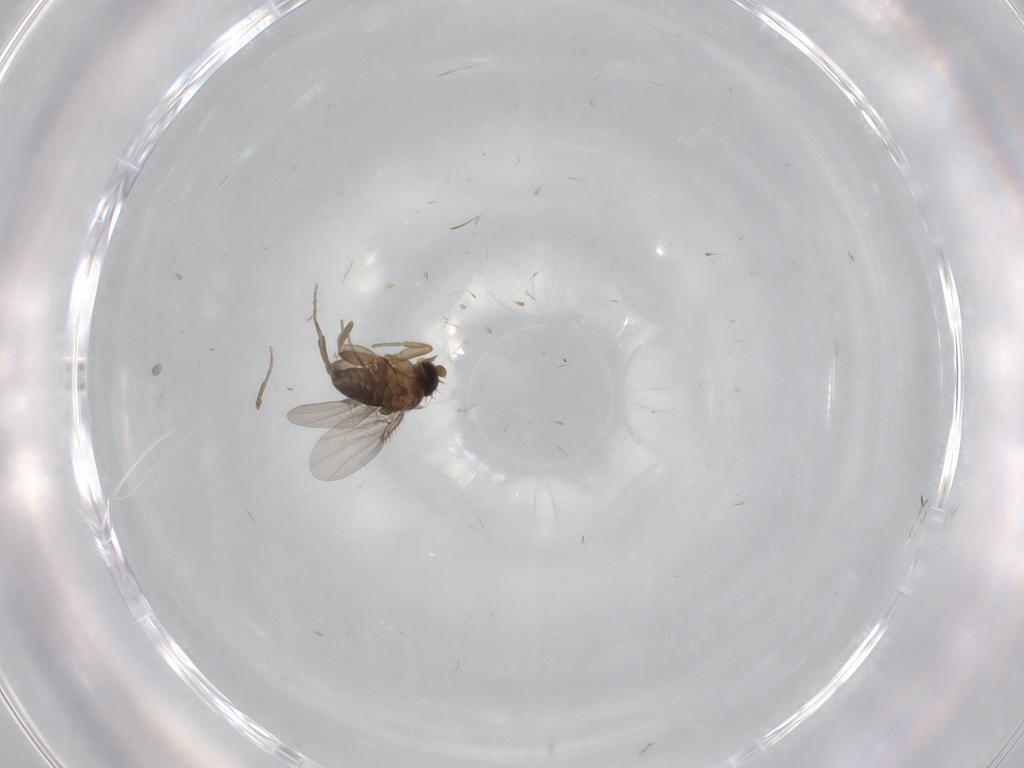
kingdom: Animalia
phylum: Arthropoda
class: Insecta
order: Diptera
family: Phoridae
